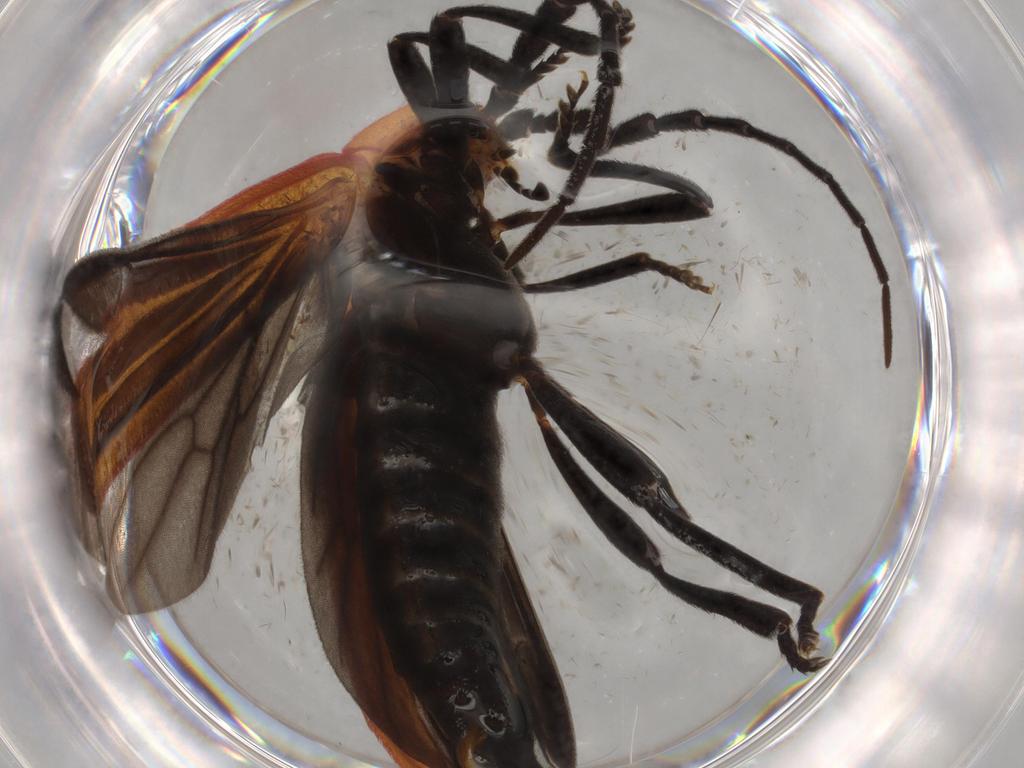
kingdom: Animalia
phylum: Arthropoda
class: Insecta
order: Coleoptera
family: Lycidae
